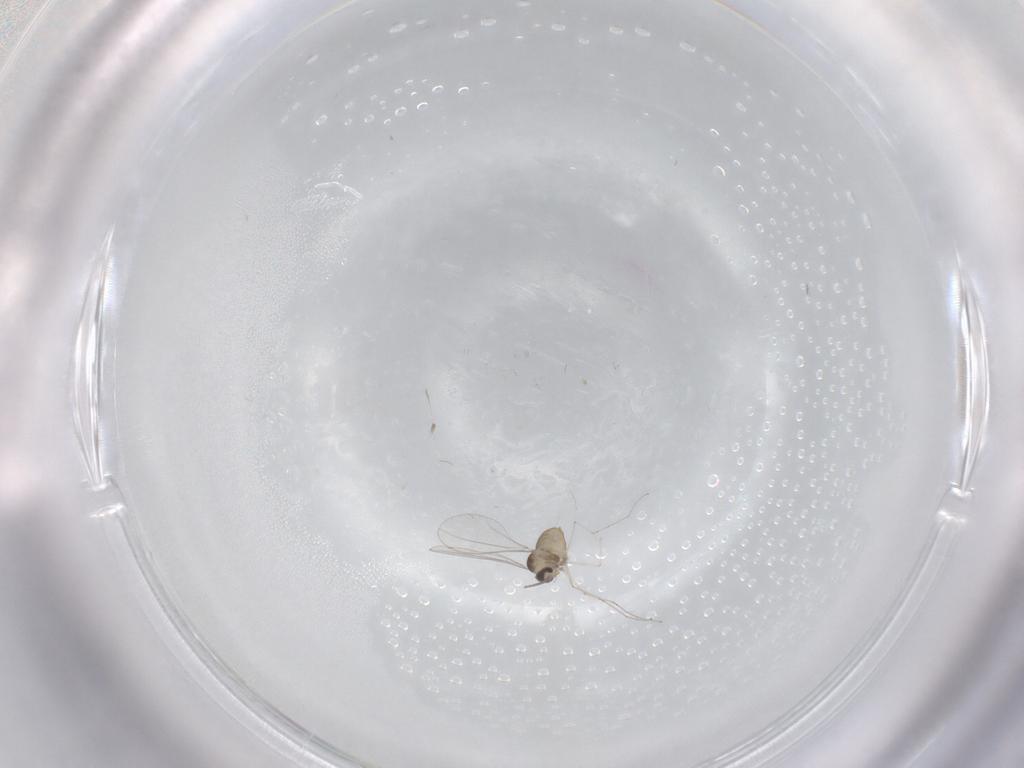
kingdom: Animalia
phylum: Arthropoda
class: Insecta
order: Diptera
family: Cecidomyiidae
